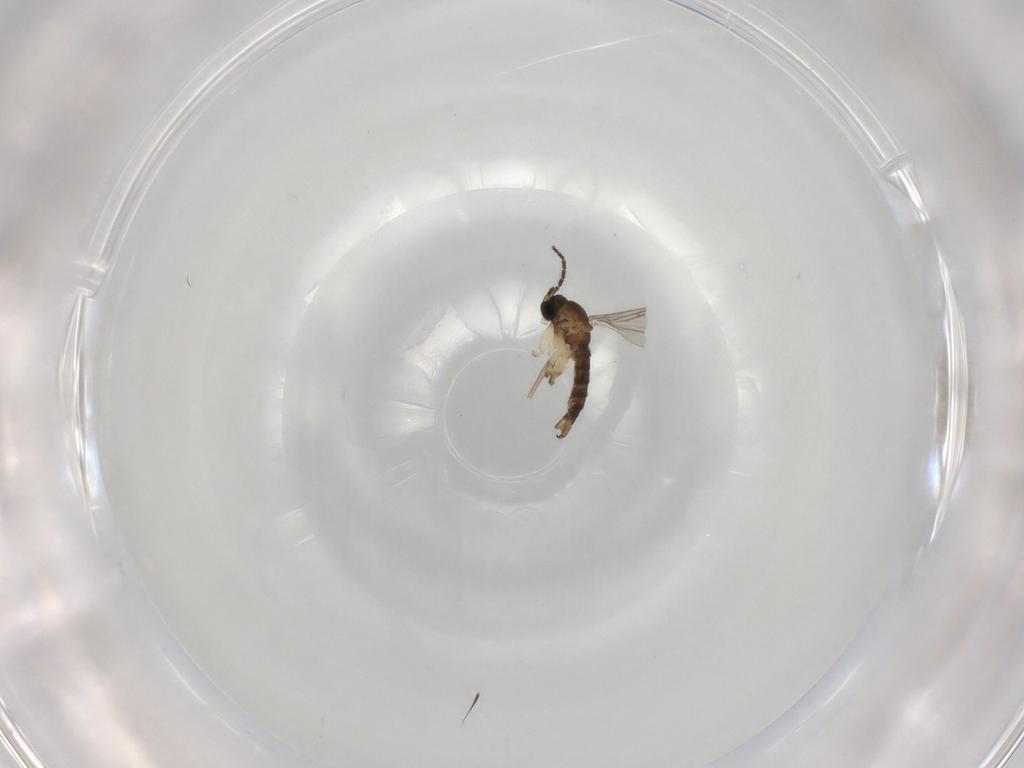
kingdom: Animalia
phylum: Arthropoda
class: Insecta
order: Diptera
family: Sciaridae
